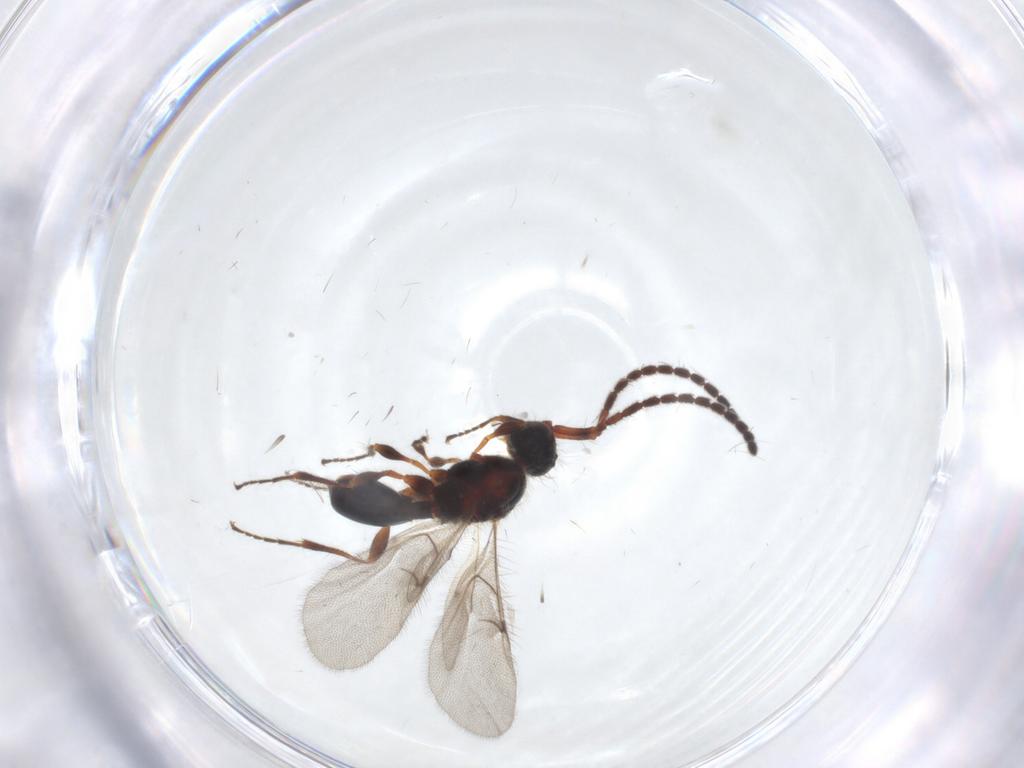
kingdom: Animalia
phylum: Arthropoda
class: Insecta
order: Hymenoptera
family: Diapriidae
